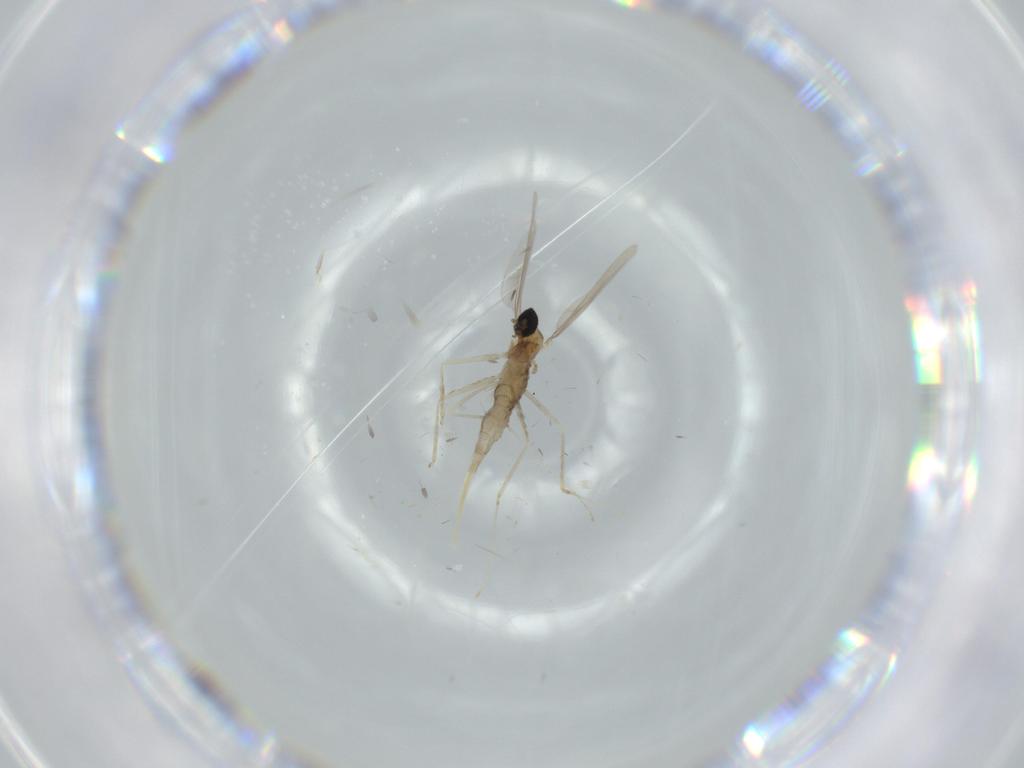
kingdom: Animalia
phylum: Arthropoda
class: Insecta
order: Diptera
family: Cecidomyiidae
